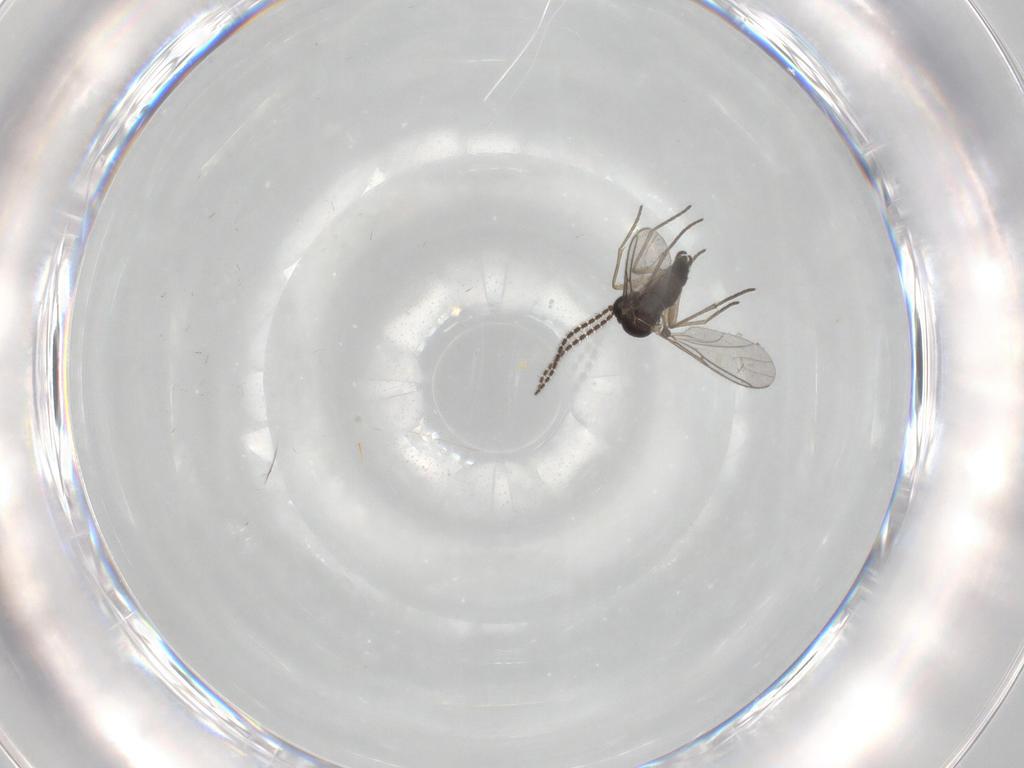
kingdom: Animalia
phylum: Arthropoda
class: Insecta
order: Diptera
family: Sciaridae
